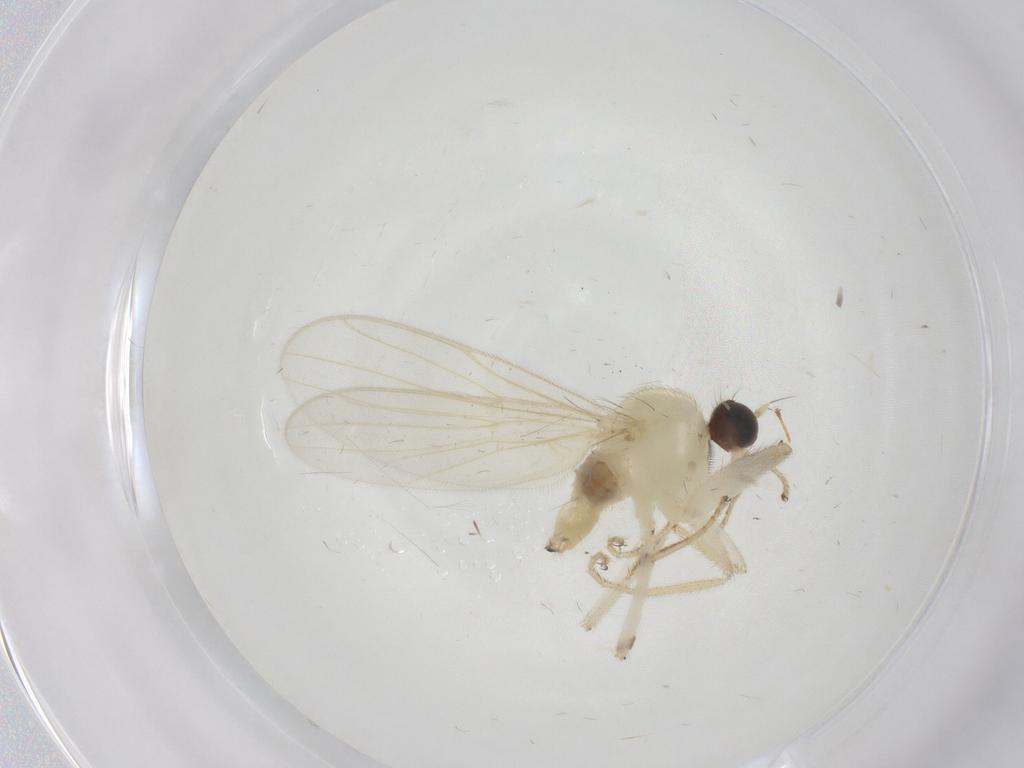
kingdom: Animalia
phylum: Arthropoda
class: Insecta
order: Diptera
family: Hybotidae
